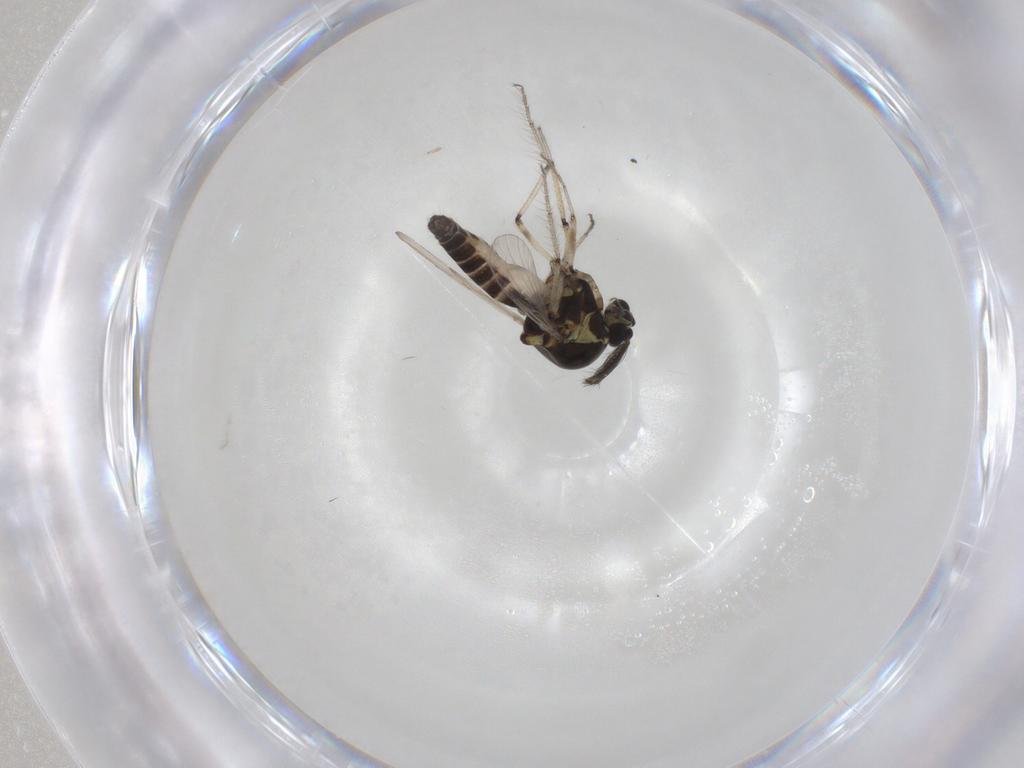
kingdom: Animalia
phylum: Arthropoda
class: Insecta
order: Diptera
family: Ceratopogonidae
